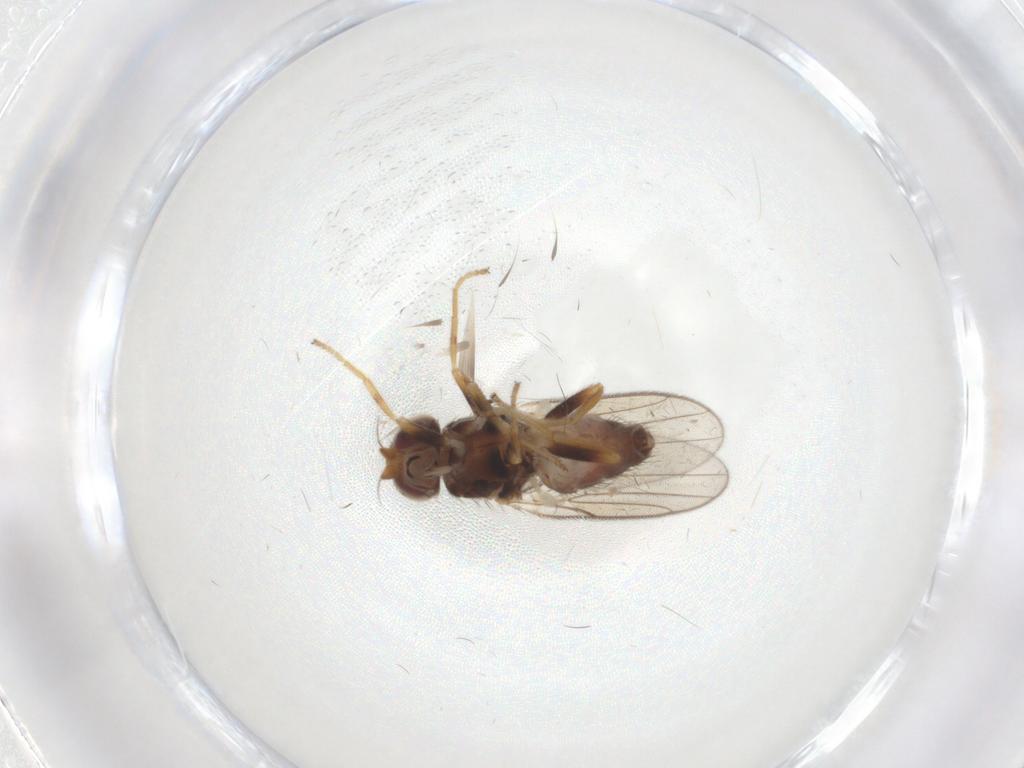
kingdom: Animalia
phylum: Arthropoda
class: Insecta
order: Diptera
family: Chloropidae
